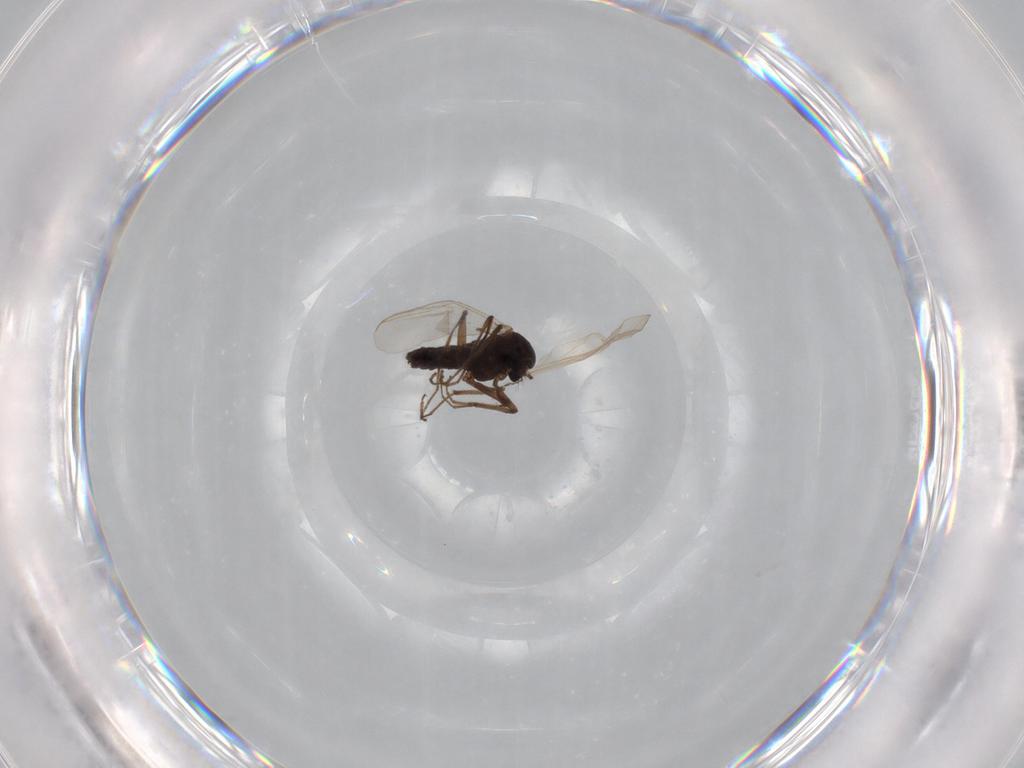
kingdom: Animalia
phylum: Arthropoda
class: Insecta
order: Diptera
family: Chironomidae
